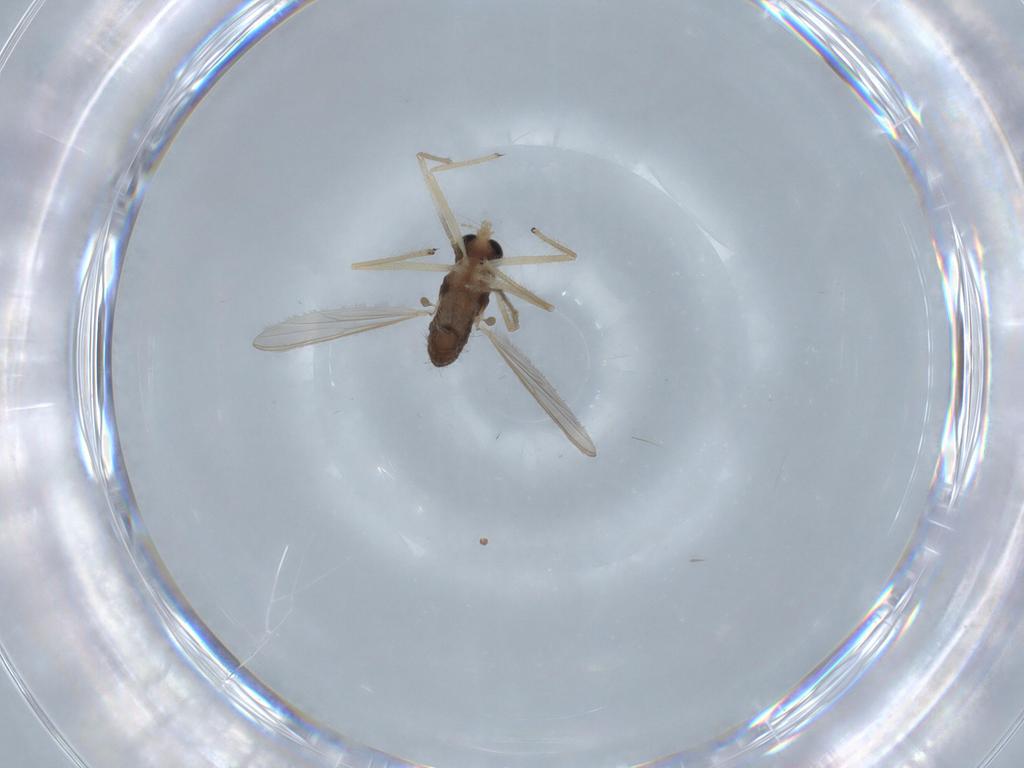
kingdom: Animalia
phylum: Arthropoda
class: Insecta
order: Diptera
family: Chironomidae
